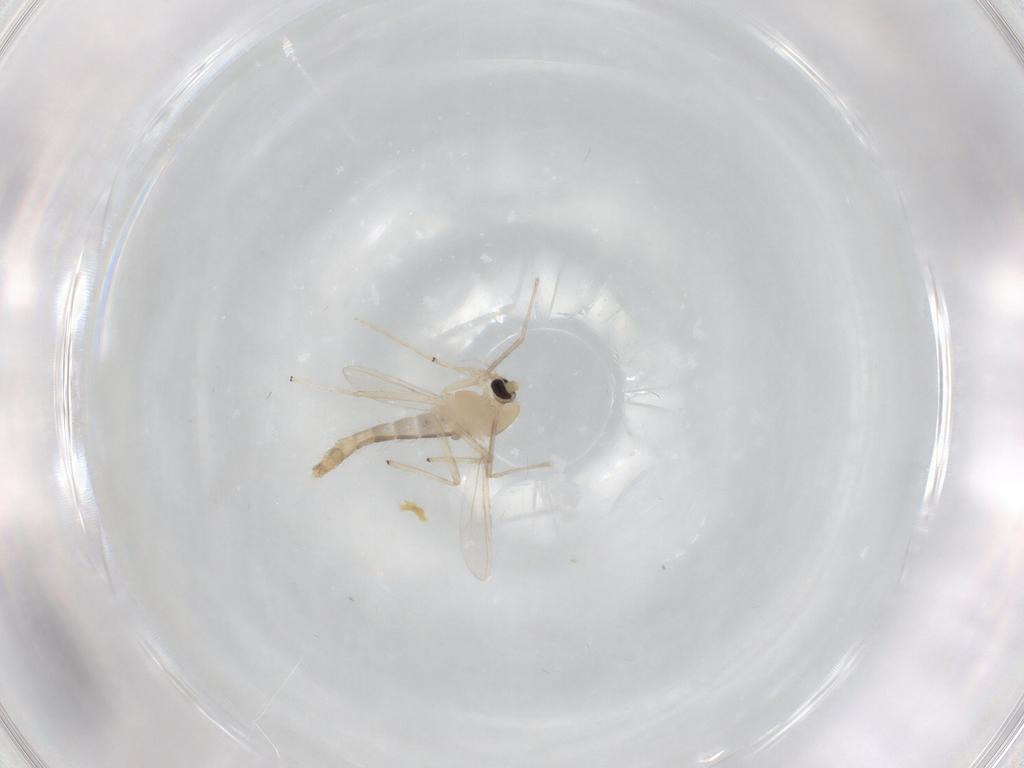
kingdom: Animalia
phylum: Arthropoda
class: Insecta
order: Diptera
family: Chironomidae
